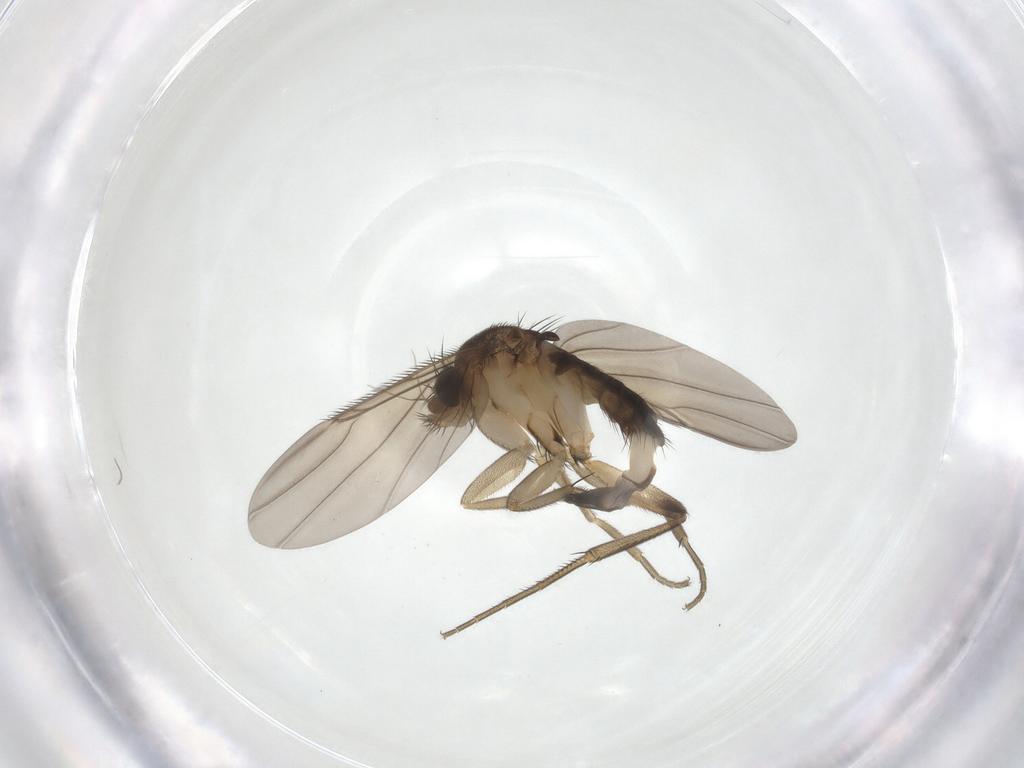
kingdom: Animalia
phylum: Arthropoda
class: Insecta
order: Diptera
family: Phoridae
